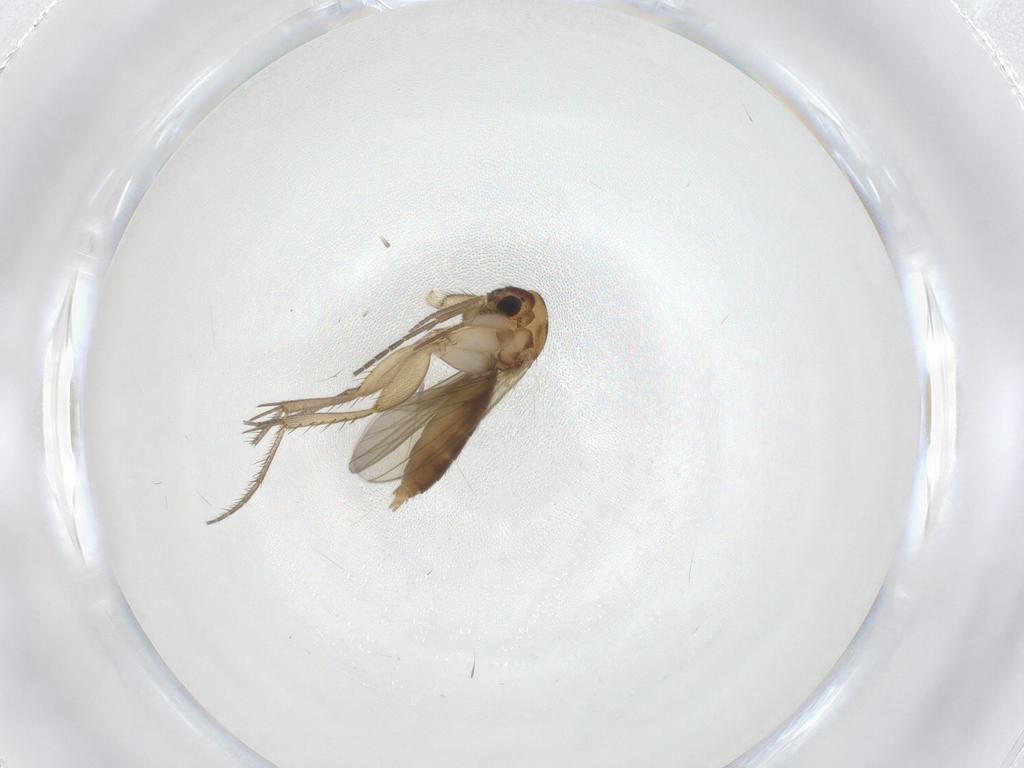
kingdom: Animalia
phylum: Arthropoda
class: Insecta
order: Diptera
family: Mycetophilidae
